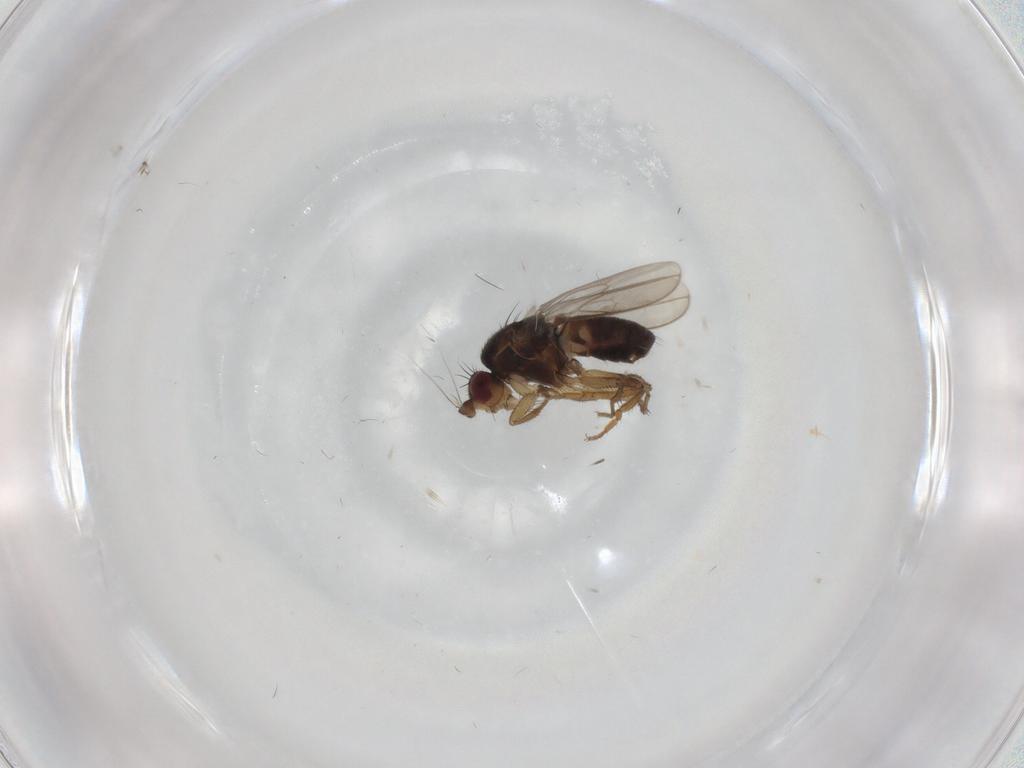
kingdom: Animalia
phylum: Arthropoda
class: Insecta
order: Diptera
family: Sphaeroceridae
